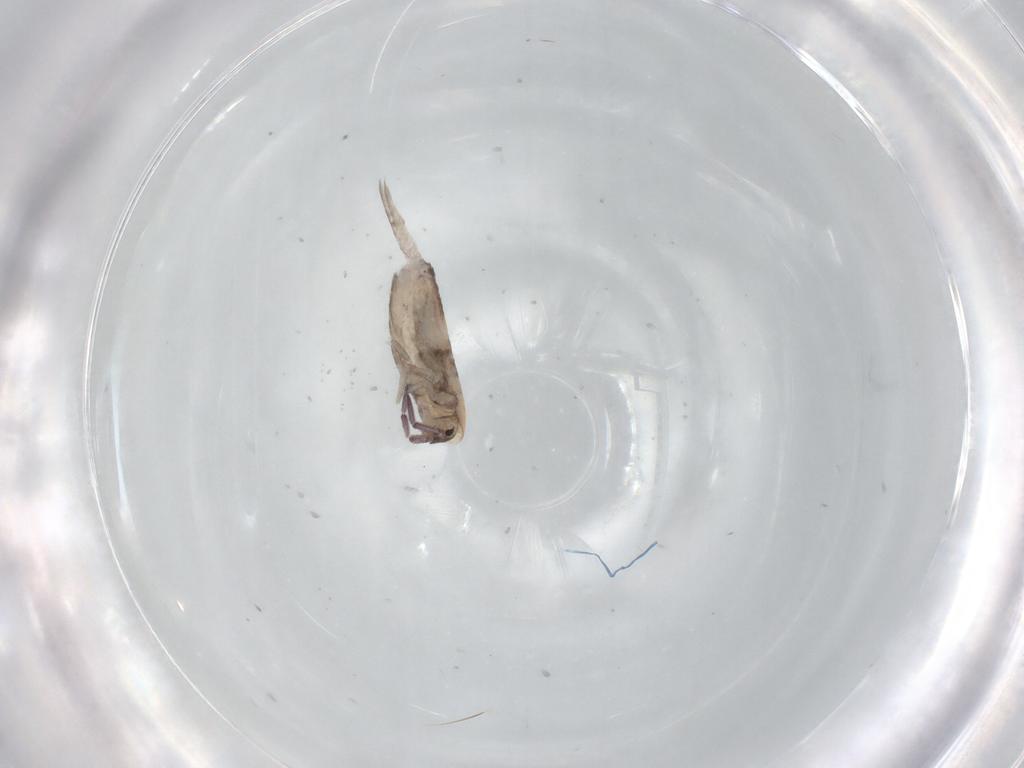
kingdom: Animalia
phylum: Arthropoda
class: Collembola
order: Entomobryomorpha
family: Entomobryidae
